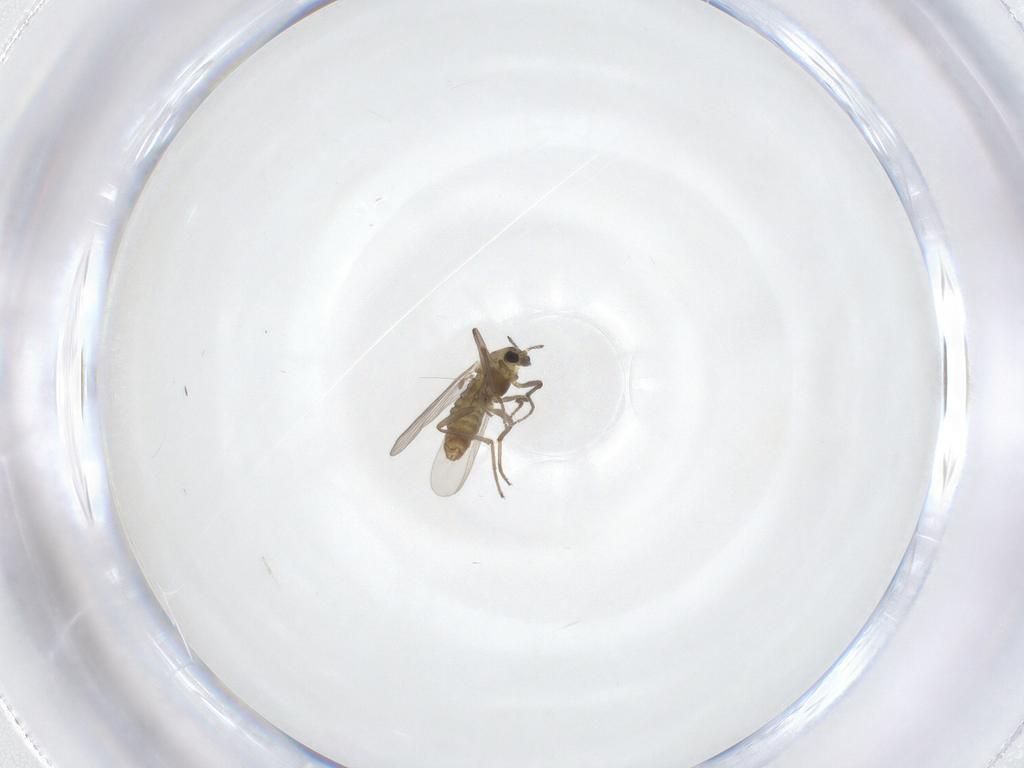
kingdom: Animalia
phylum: Arthropoda
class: Insecta
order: Diptera
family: Chironomidae
